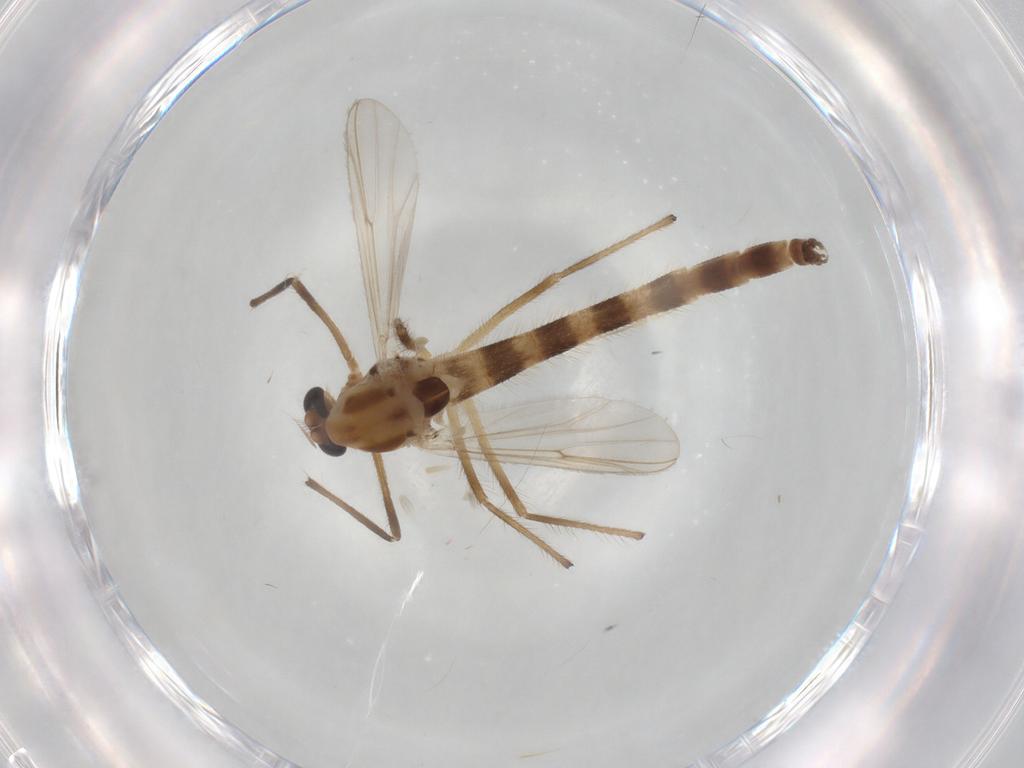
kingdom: Animalia
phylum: Arthropoda
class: Insecta
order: Diptera
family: Chironomidae
